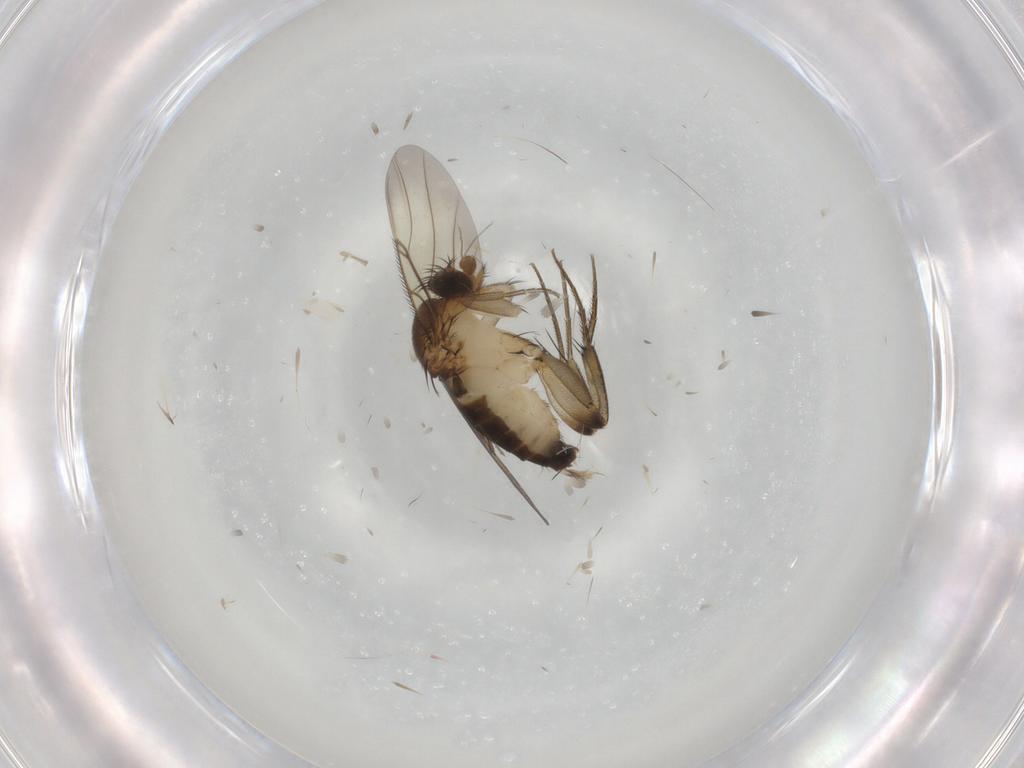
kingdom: Animalia
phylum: Arthropoda
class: Insecta
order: Diptera
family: Phoridae
